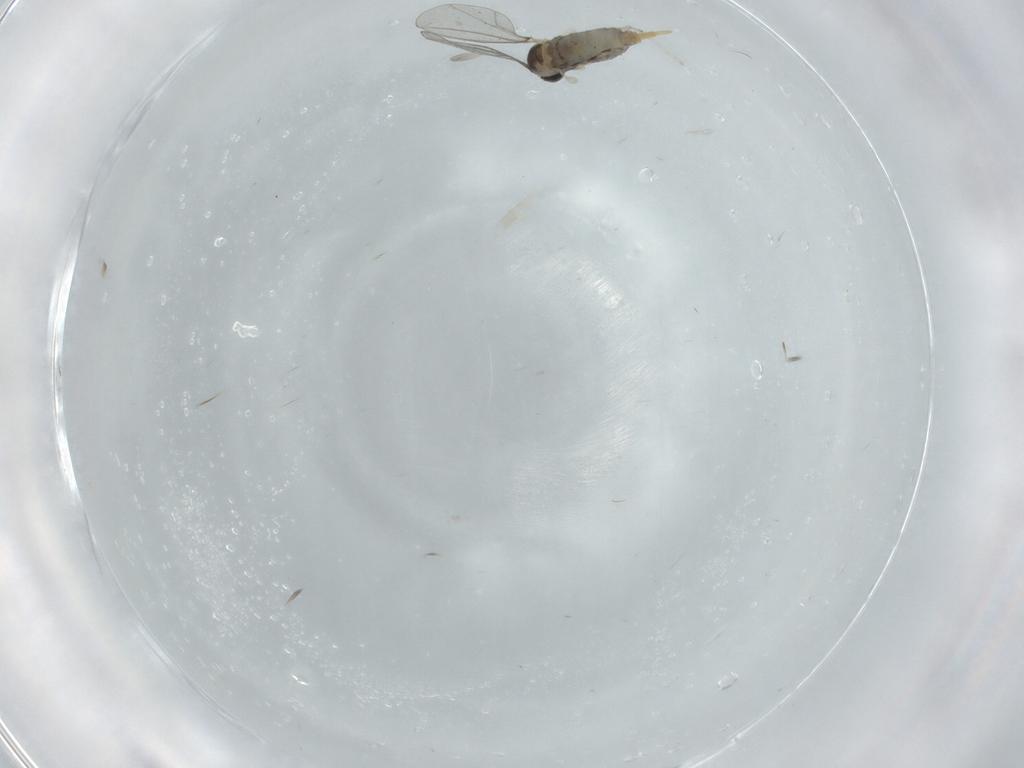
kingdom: Animalia
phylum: Arthropoda
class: Insecta
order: Diptera
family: Cecidomyiidae
